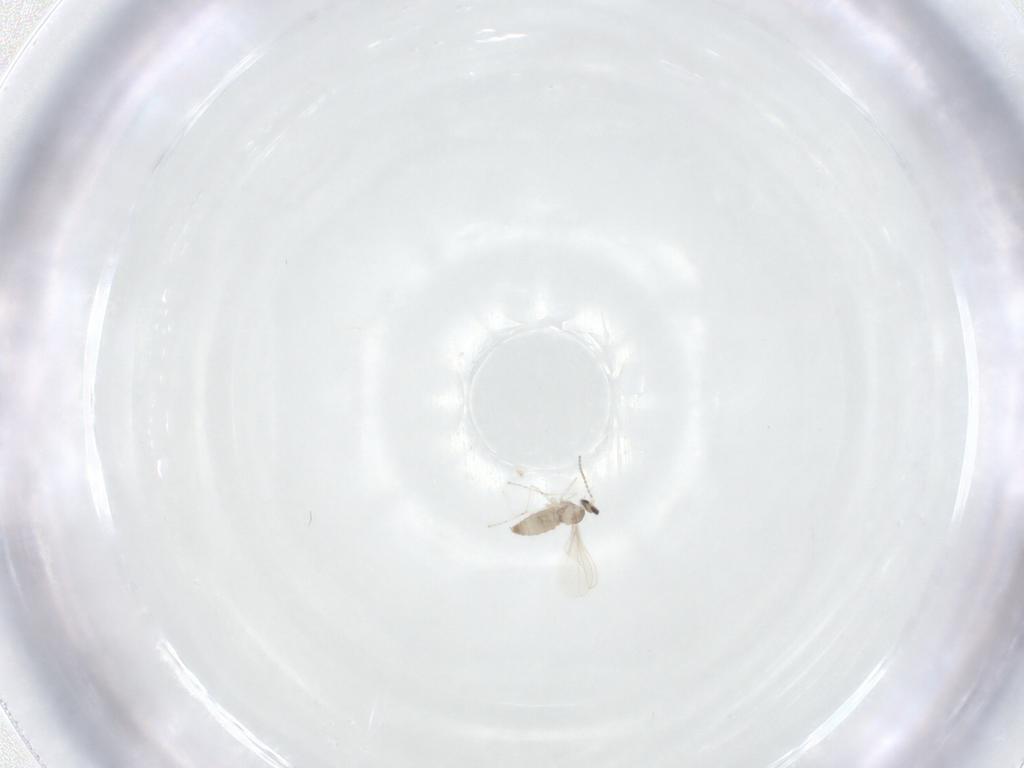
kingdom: Animalia
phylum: Arthropoda
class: Insecta
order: Diptera
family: Cecidomyiidae
